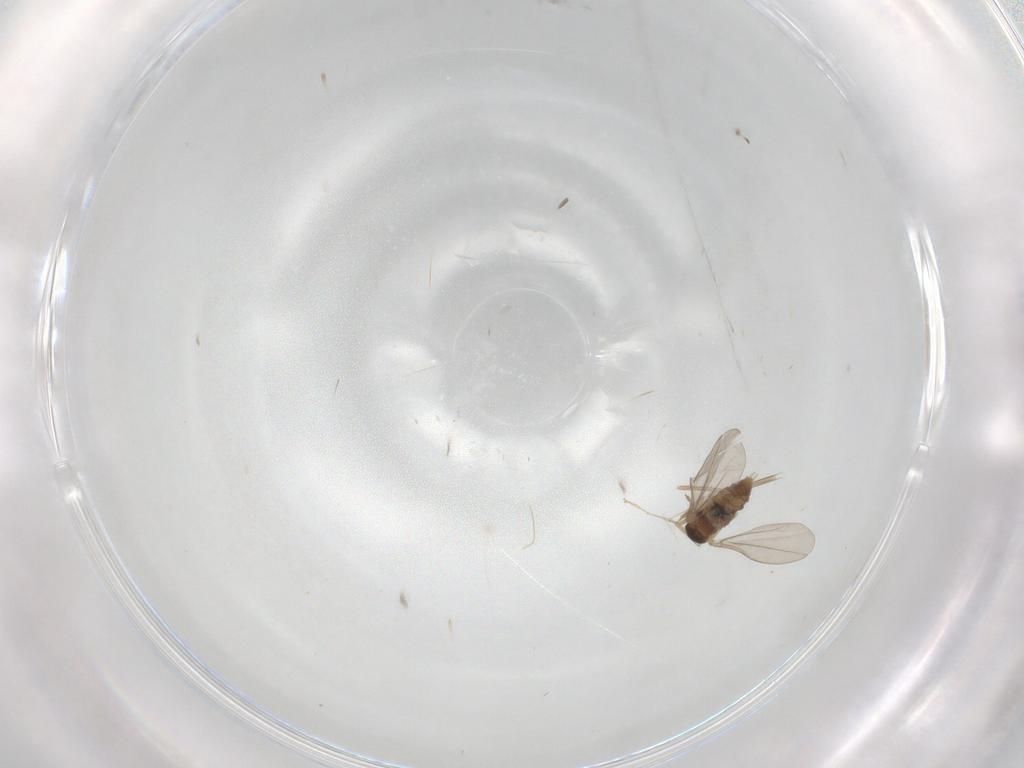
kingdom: Animalia
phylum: Arthropoda
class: Insecta
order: Diptera
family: Cecidomyiidae
